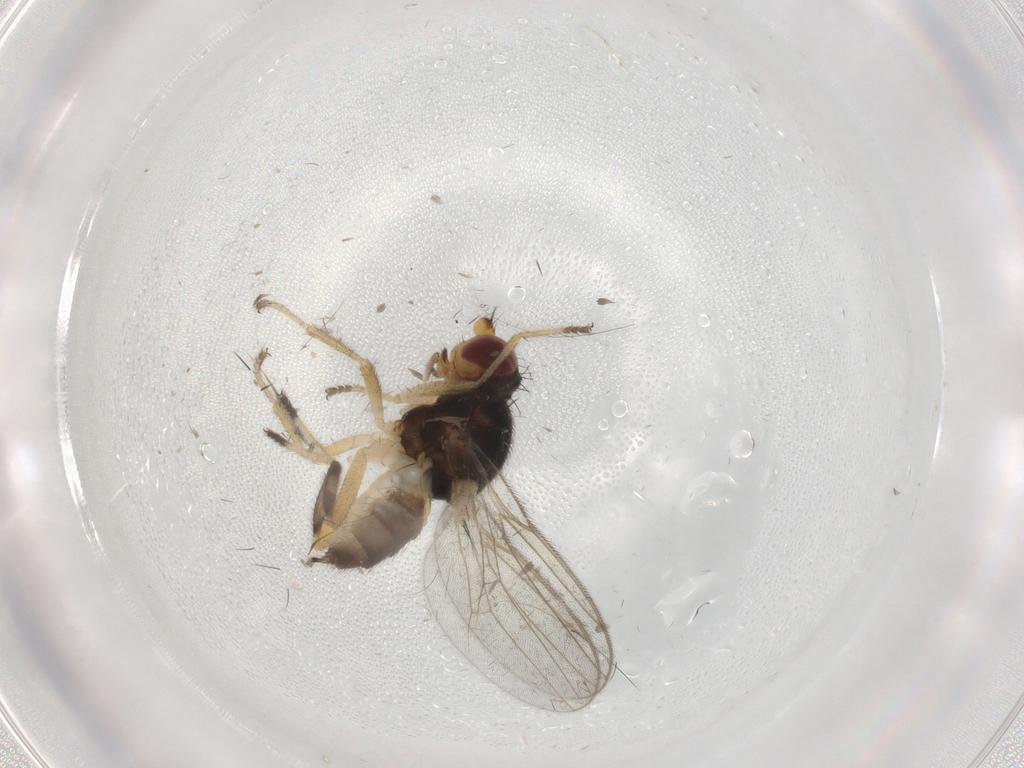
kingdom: Animalia
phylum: Arthropoda
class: Insecta
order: Diptera
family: Chloropidae
